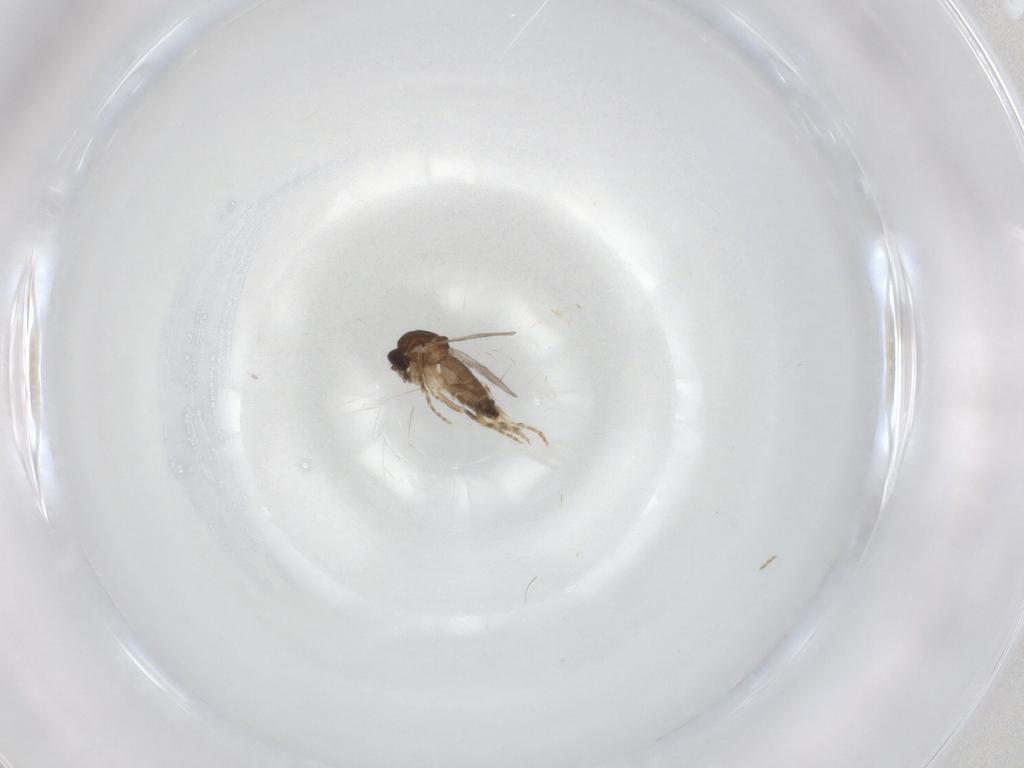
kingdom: Animalia
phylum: Arthropoda
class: Insecta
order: Diptera
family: Ceratopogonidae
